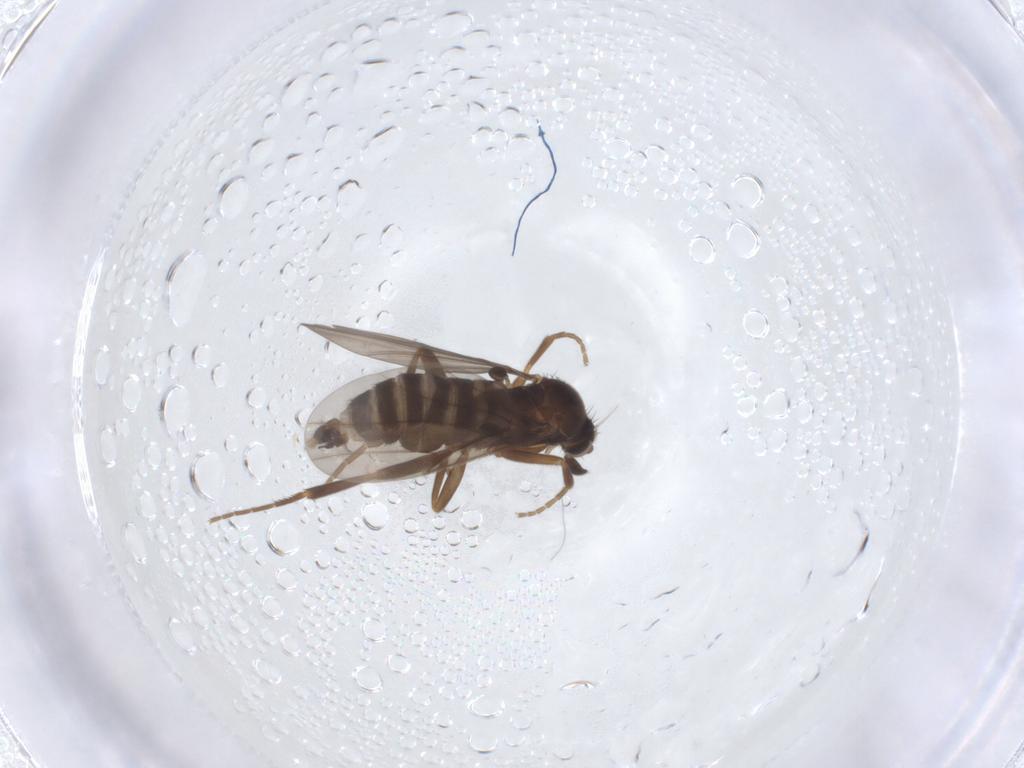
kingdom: Animalia
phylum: Arthropoda
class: Insecta
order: Diptera
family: Phoridae
